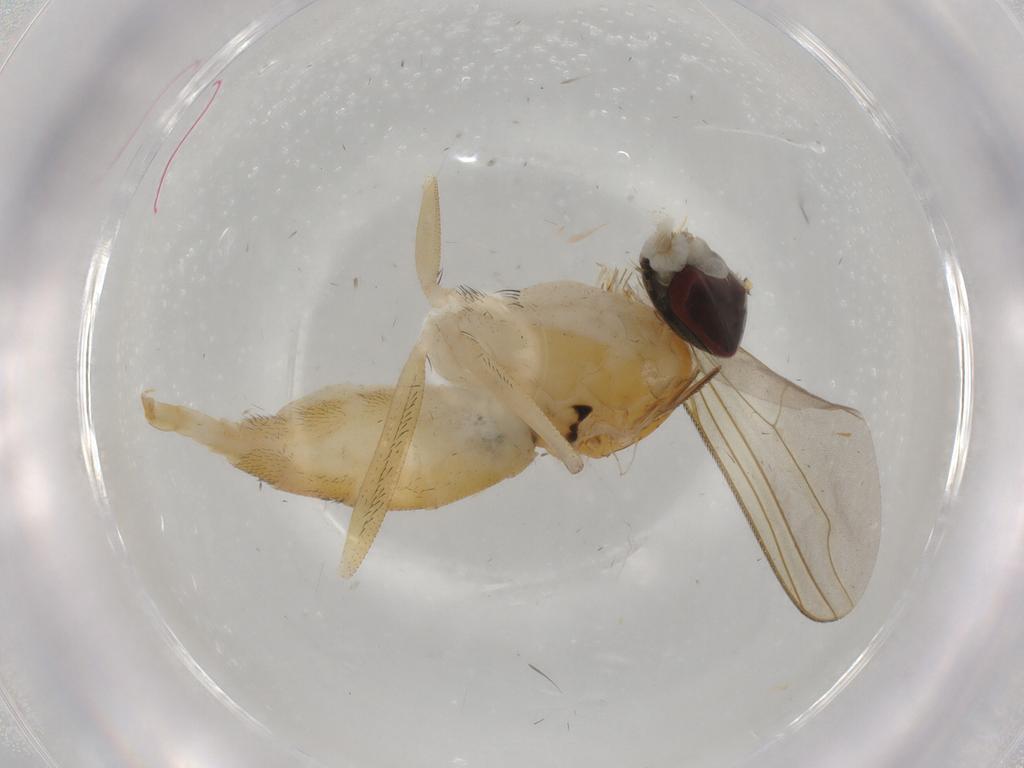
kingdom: Animalia
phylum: Arthropoda
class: Insecta
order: Diptera
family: Dolichopodidae
